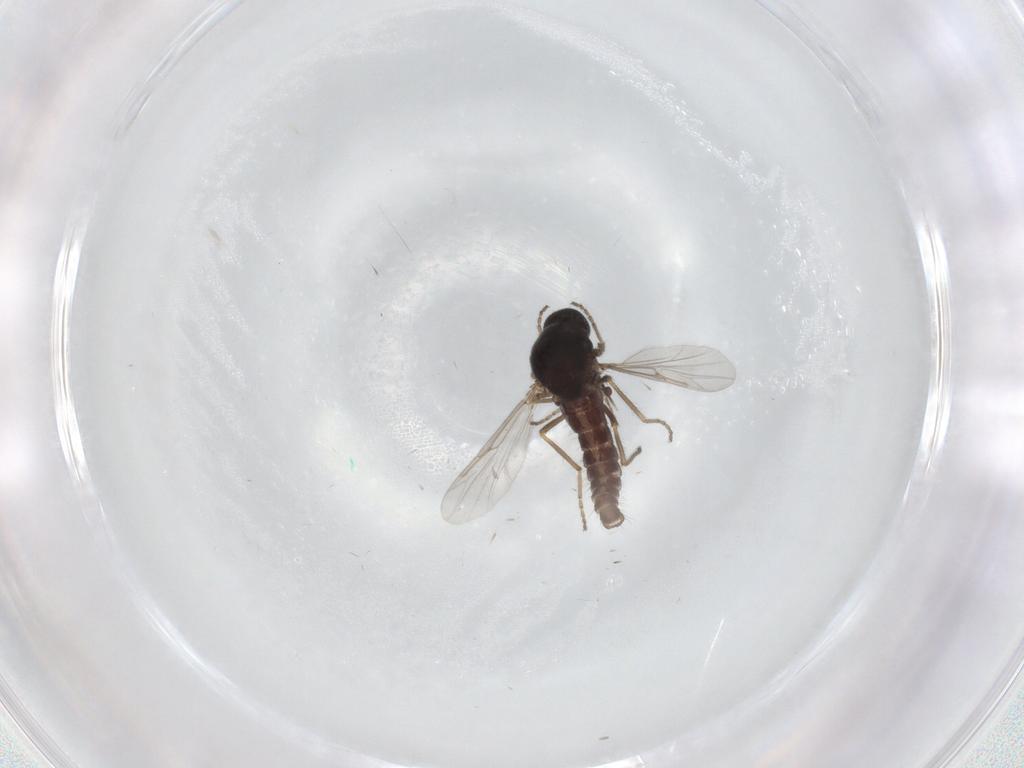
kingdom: Animalia
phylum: Arthropoda
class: Insecta
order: Diptera
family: Ceratopogonidae
